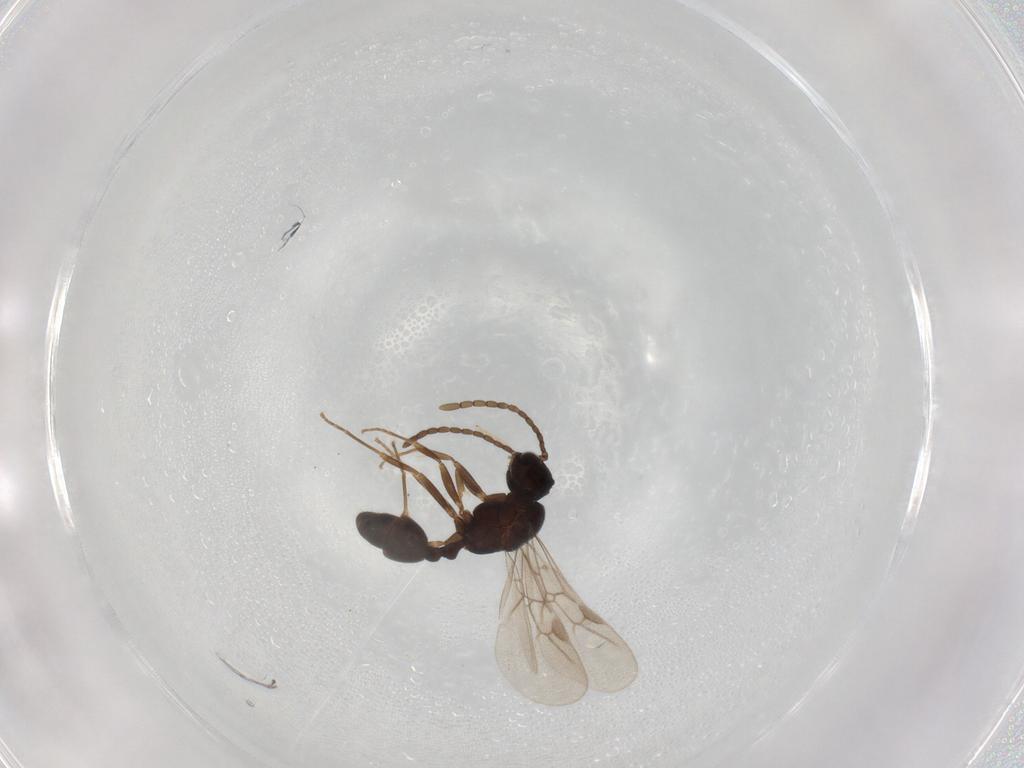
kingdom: Animalia
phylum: Arthropoda
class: Insecta
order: Hymenoptera
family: Formicidae
